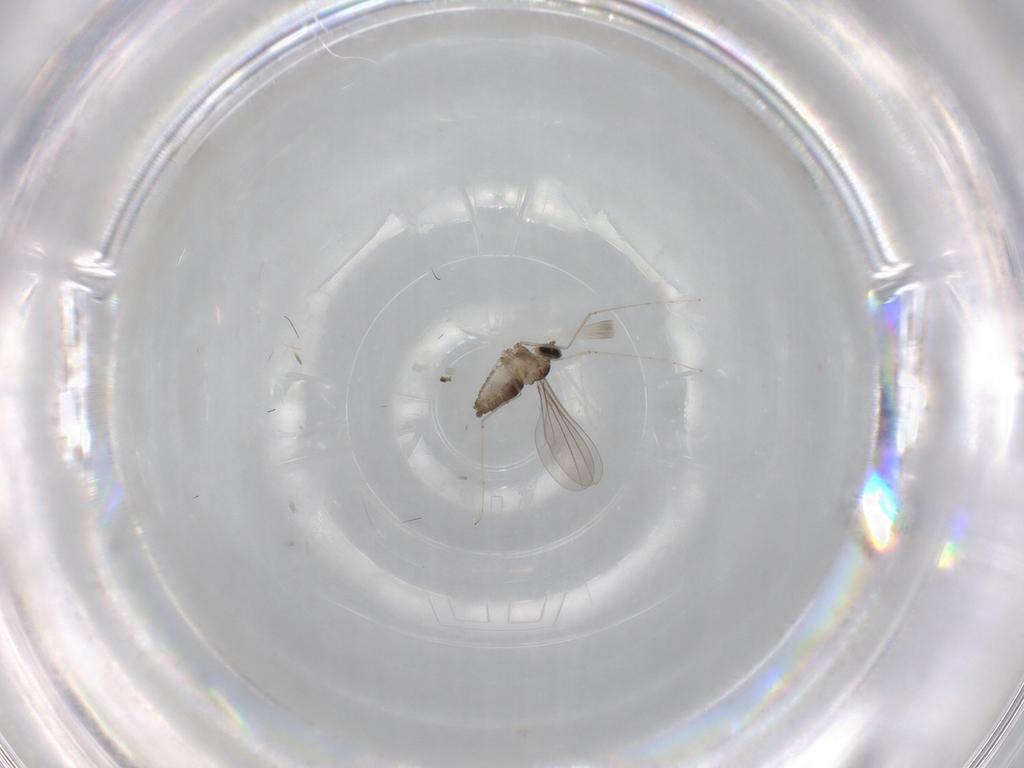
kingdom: Animalia
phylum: Arthropoda
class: Insecta
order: Diptera
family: Cecidomyiidae
